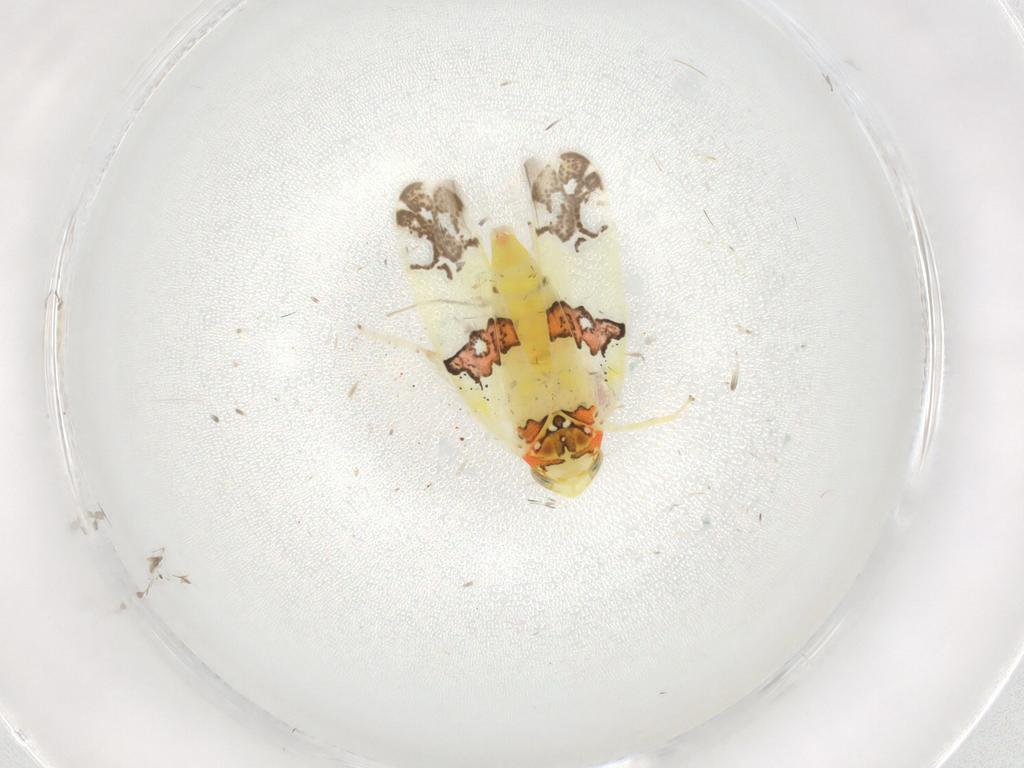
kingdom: Animalia
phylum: Arthropoda
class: Insecta
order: Hemiptera
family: Cicadellidae
